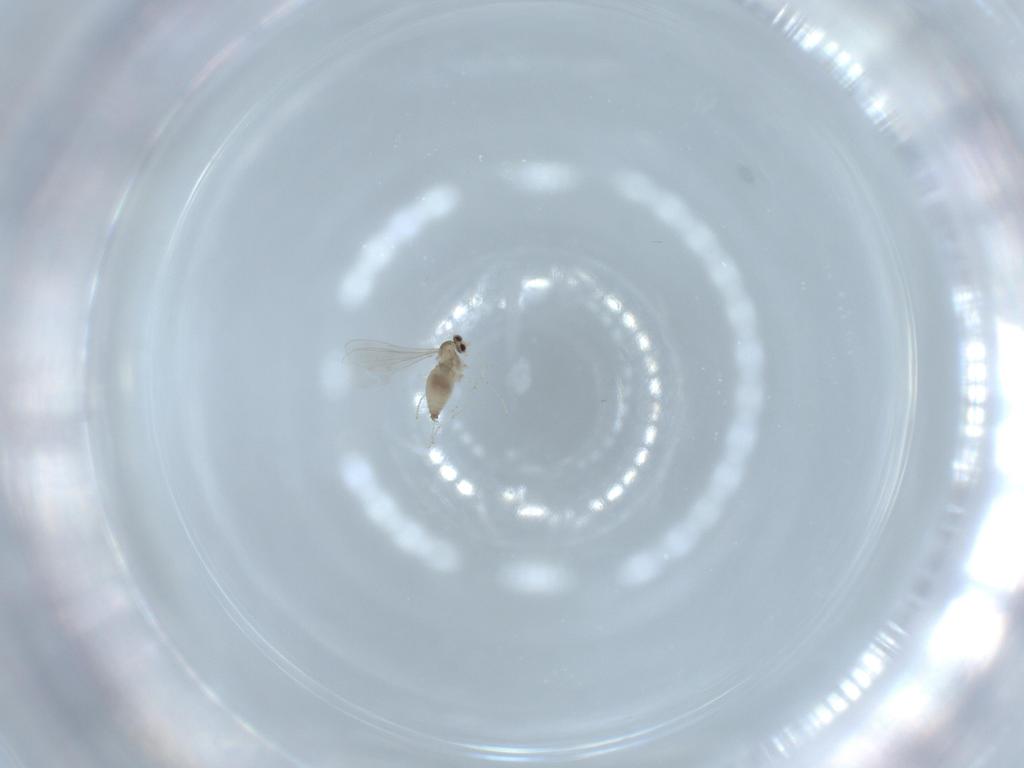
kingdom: Animalia
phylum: Arthropoda
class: Insecta
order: Diptera
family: Cecidomyiidae
